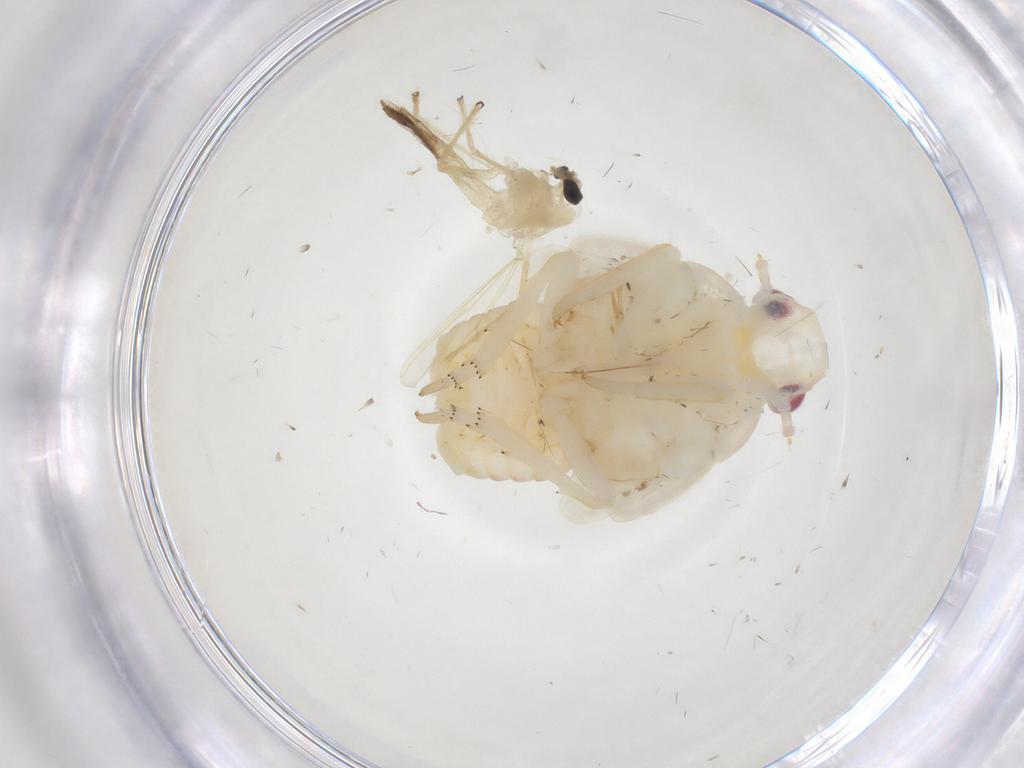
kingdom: Animalia
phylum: Arthropoda
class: Insecta
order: Hemiptera
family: Fulgoroidea_incertae_sedis
